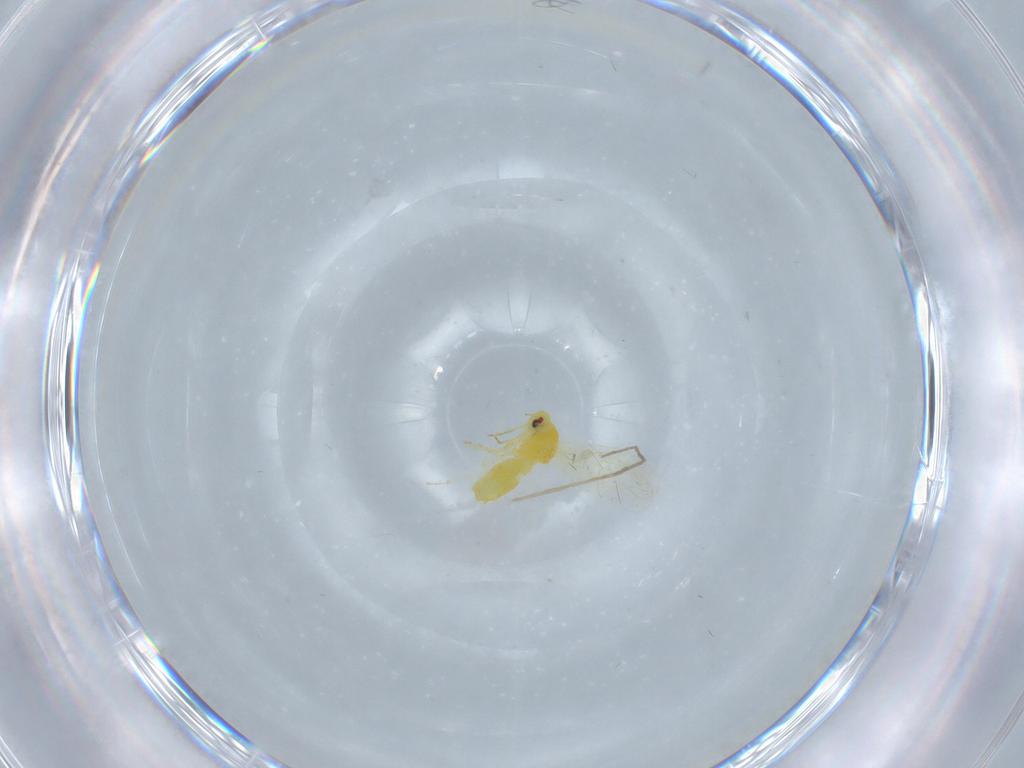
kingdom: Animalia
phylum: Arthropoda
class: Insecta
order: Hemiptera
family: Aleyrodidae
